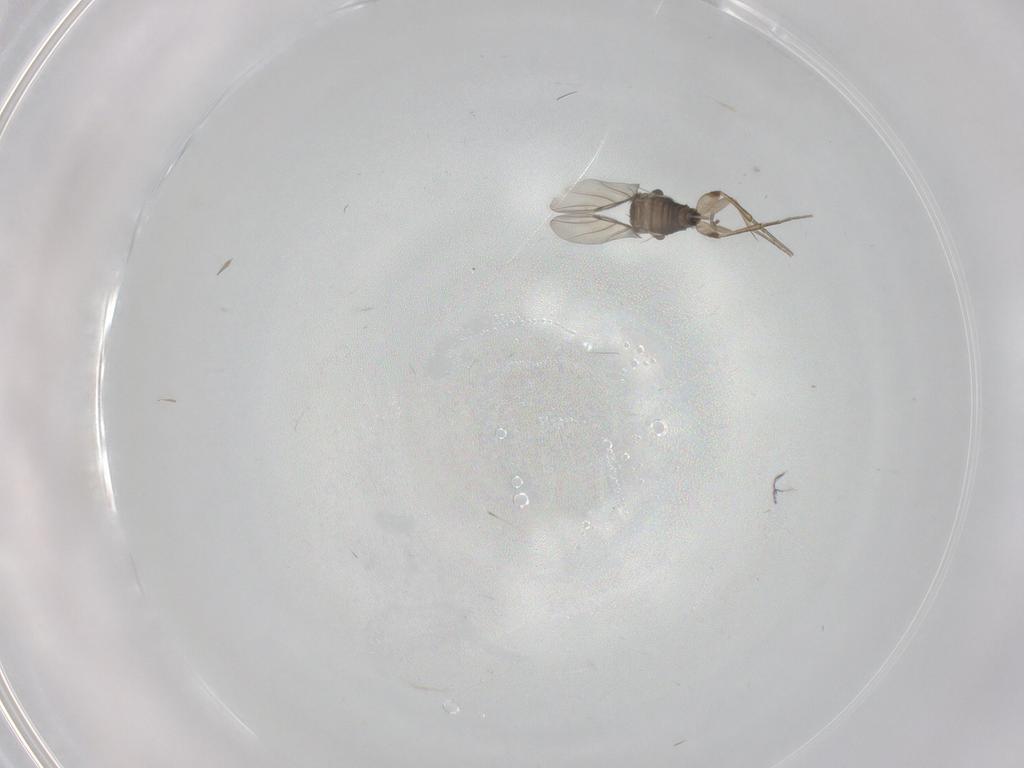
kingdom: Animalia
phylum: Arthropoda
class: Insecta
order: Diptera
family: Phoridae
